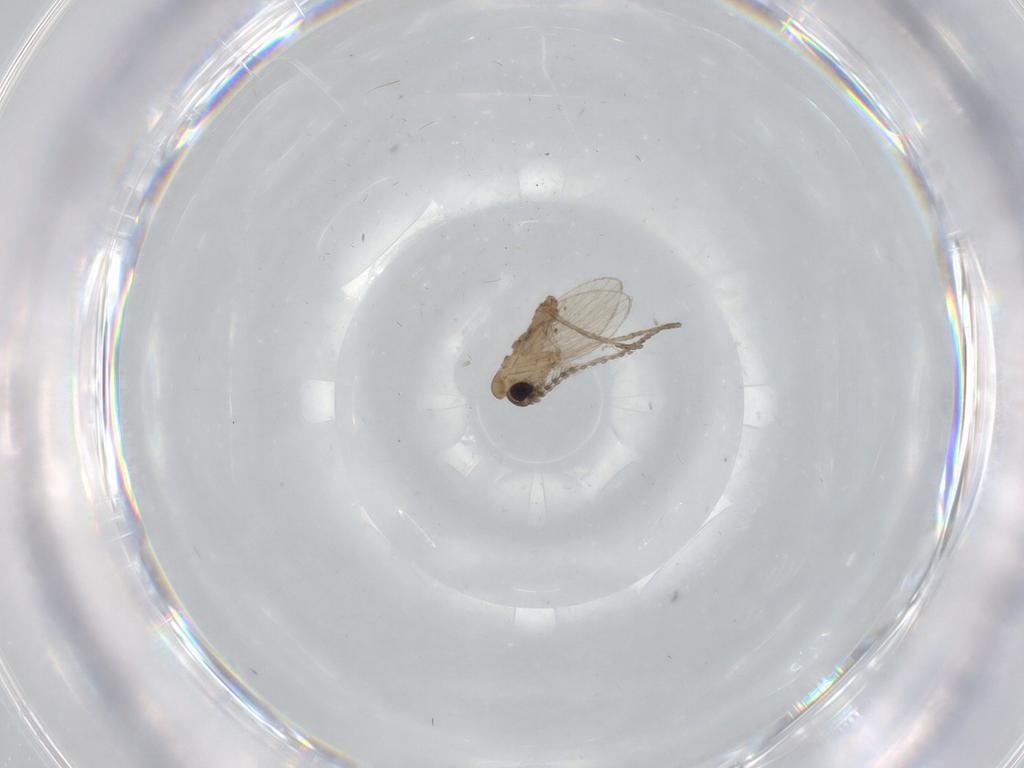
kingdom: Animalia
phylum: Arthropoda
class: Insecta
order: Diptera
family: Cecidomyiidae
